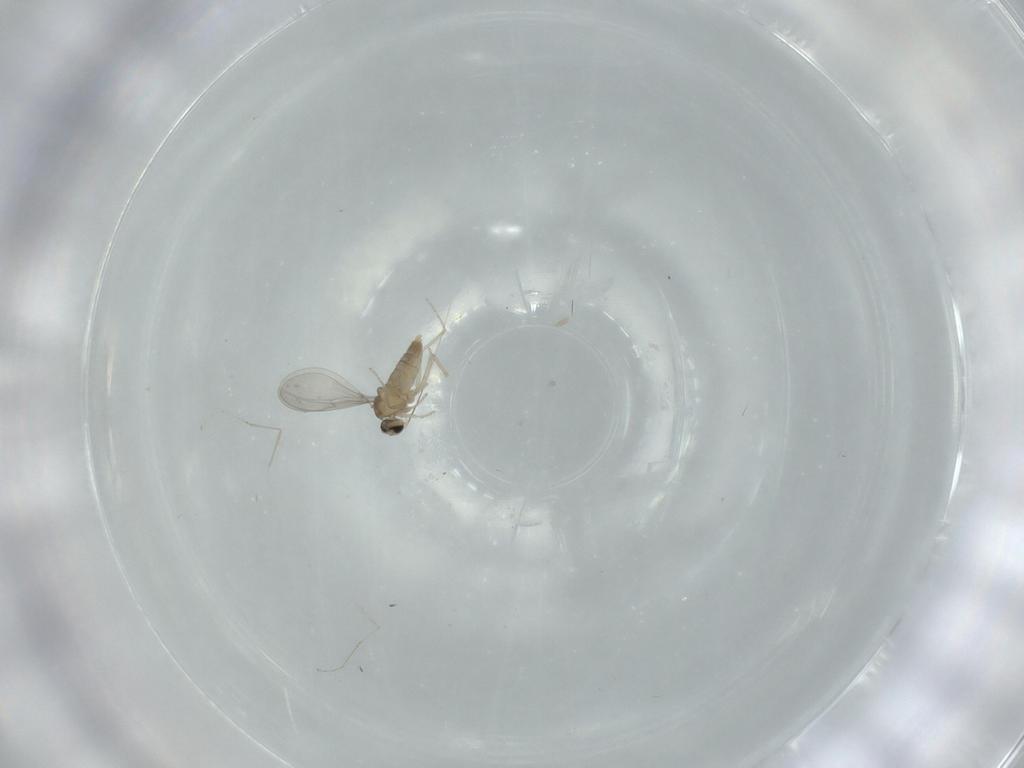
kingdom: Animalia
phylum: Arthropoda
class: Insecta
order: Diptera
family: Cecidomyiidae
